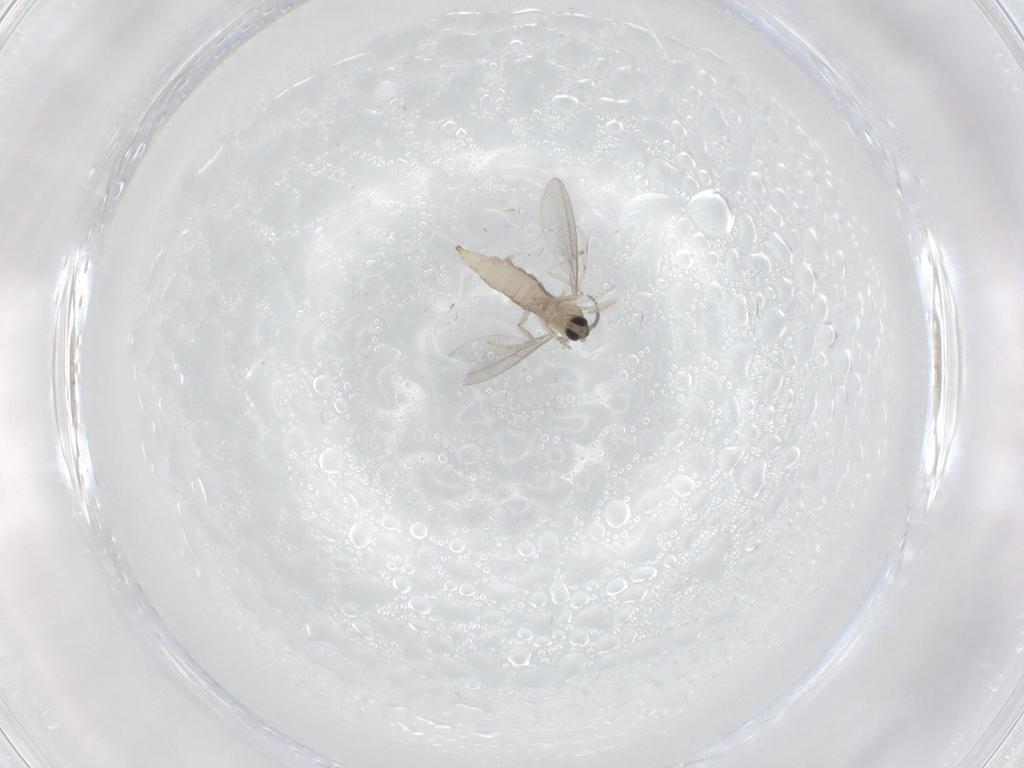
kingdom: Animalia
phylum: Arthropoda
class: Insecta
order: Diptera
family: Cecidomyiidae
